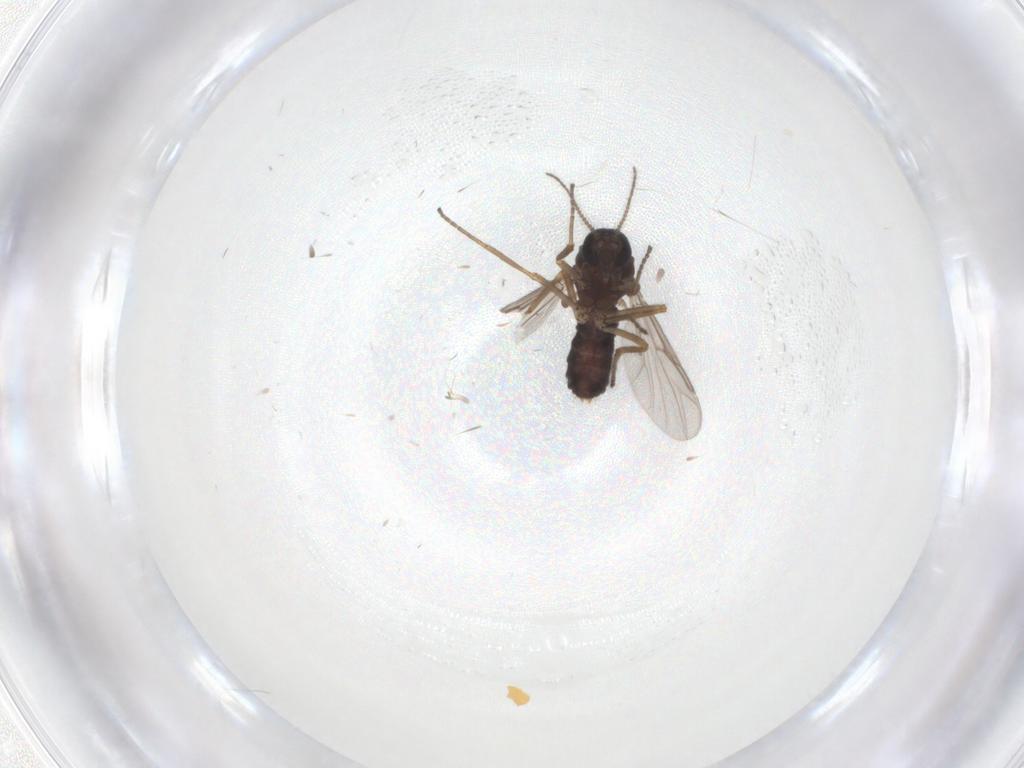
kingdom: Animalia
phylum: Arthropoda
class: Insecta
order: Diptera
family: Ceratopogonidae
